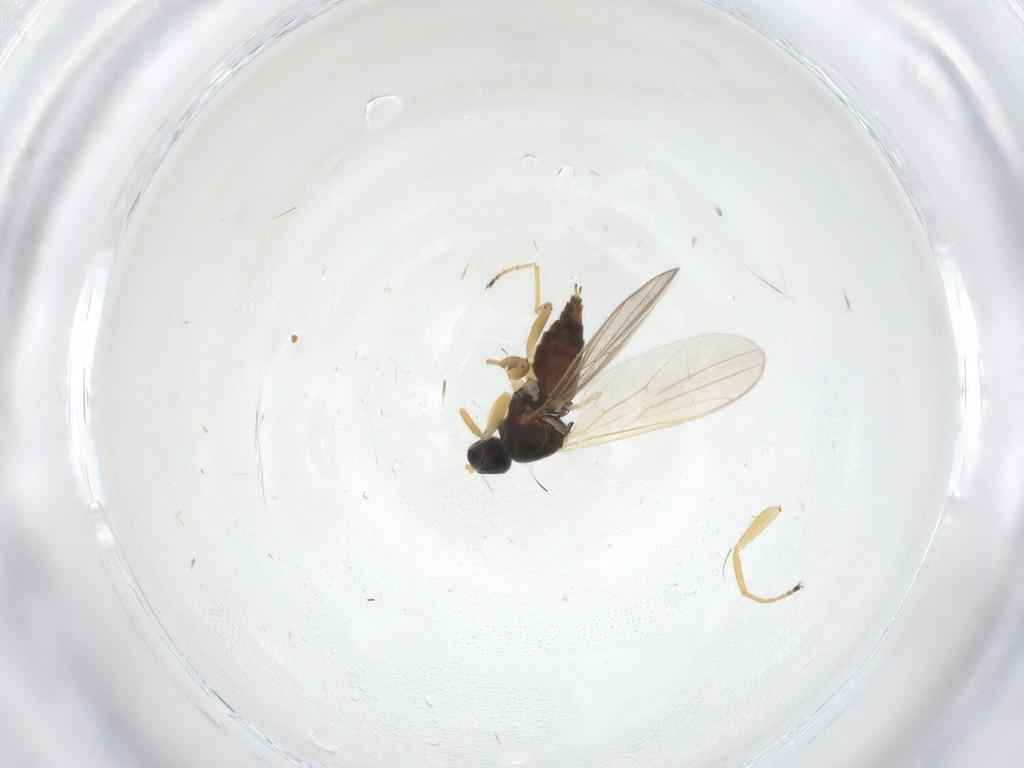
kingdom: Animalia
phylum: Arthropoda
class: Insecta
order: Diptera
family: Hybotidae
